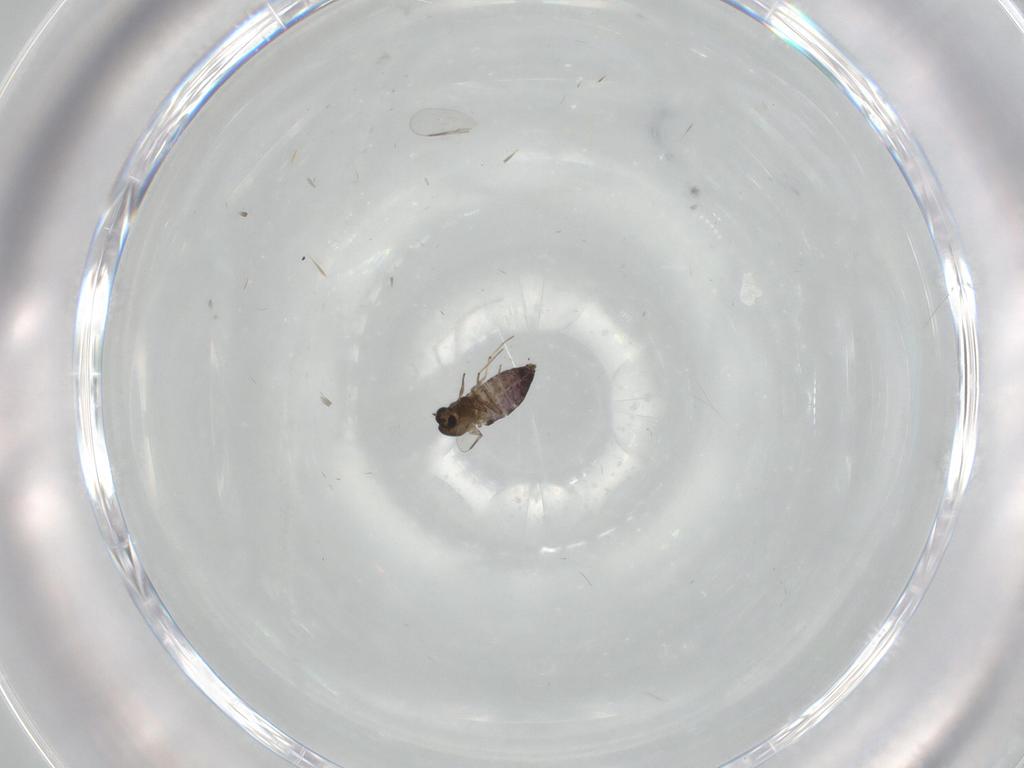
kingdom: Animalia
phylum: Arthropoda
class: Insecta
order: Diptera
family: Chironomidae
